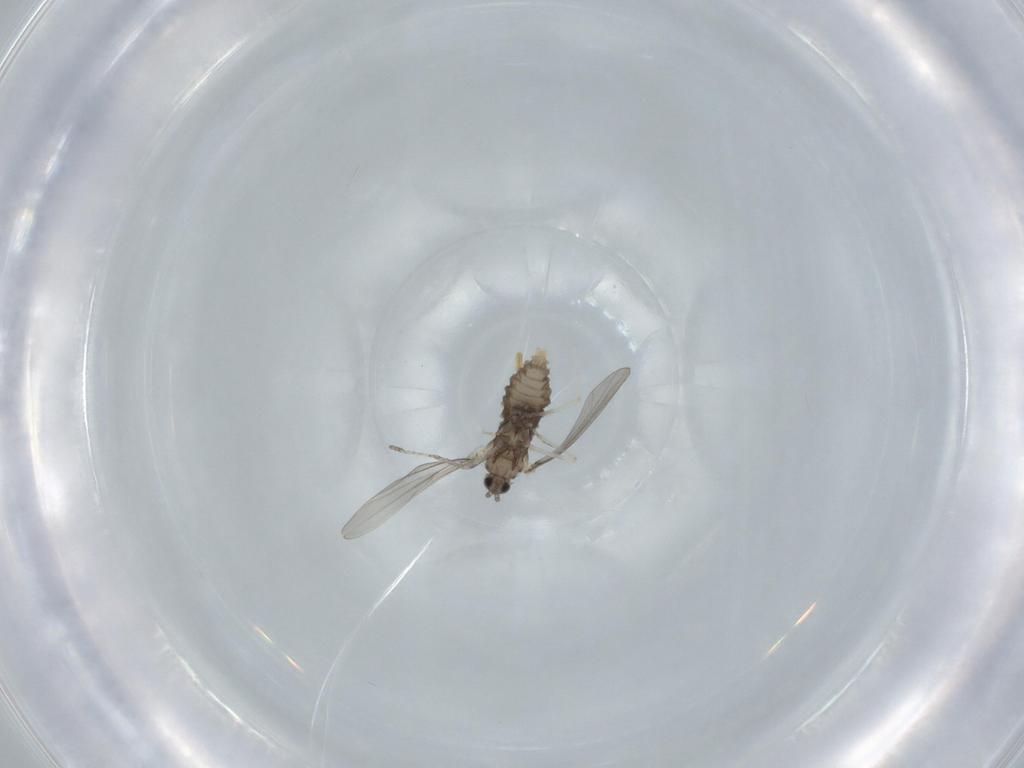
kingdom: Animalia
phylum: Arthropoda
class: Insecta
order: Diptera
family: Cecidomyiidae
